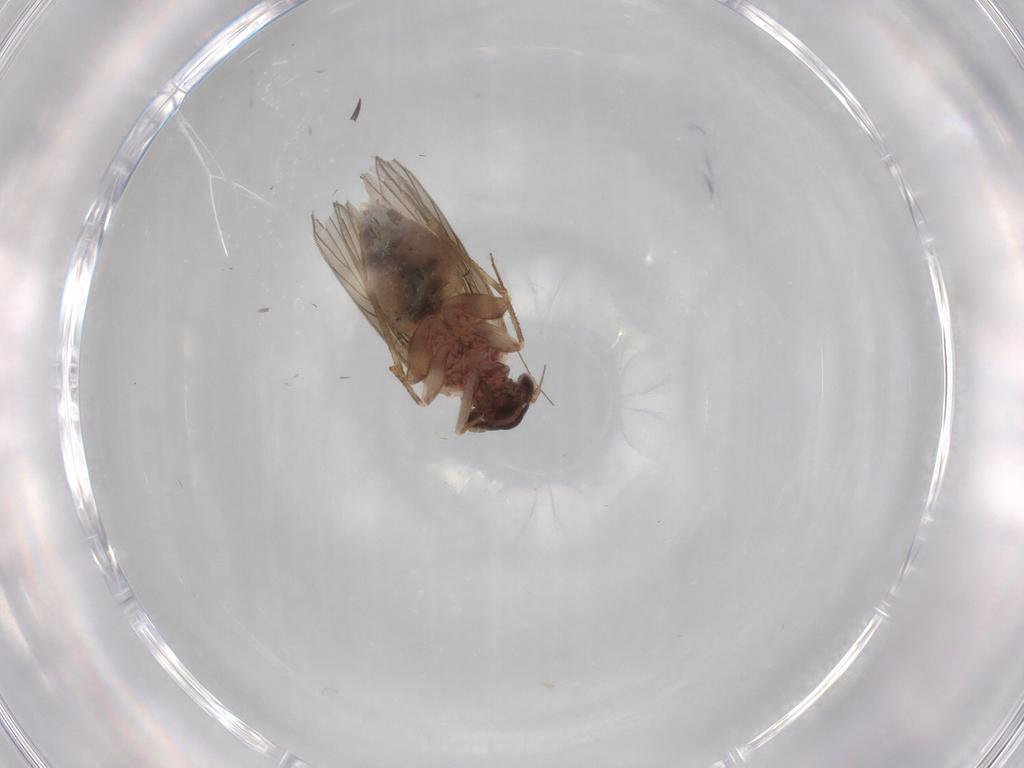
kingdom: Animalia
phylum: Arthropoda
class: Insecta
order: Psocodea
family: Lepidopsocidae
